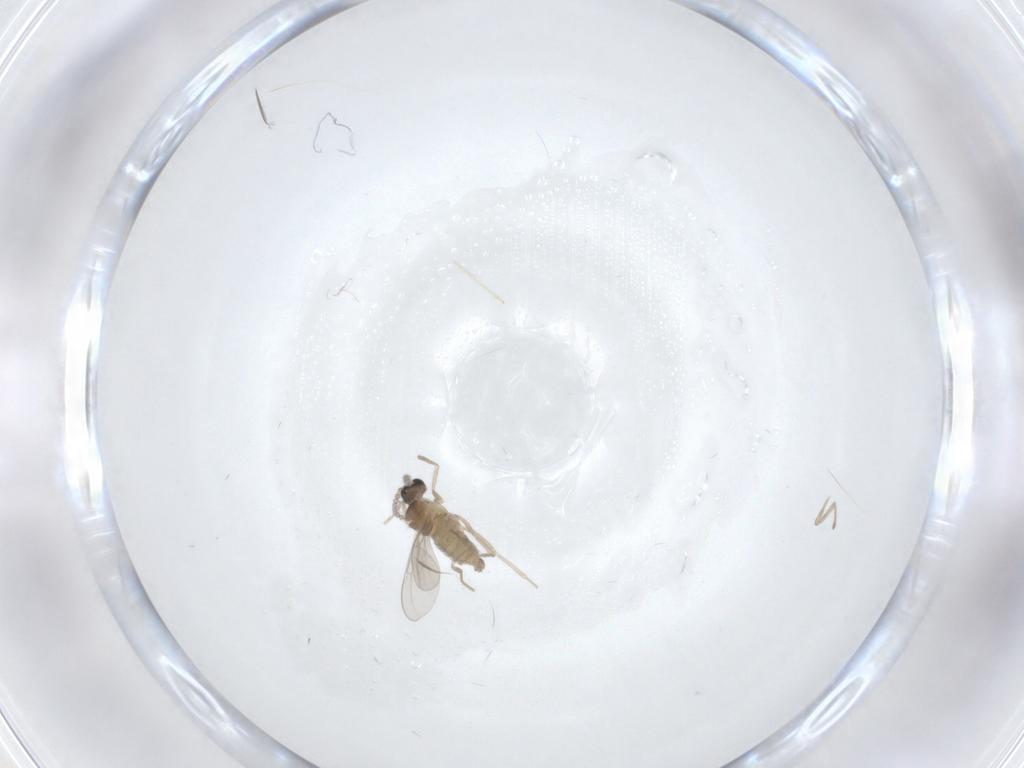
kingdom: Animalia
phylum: Arthropoda
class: Insecta
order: Diptera
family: Cecidomyiidae
